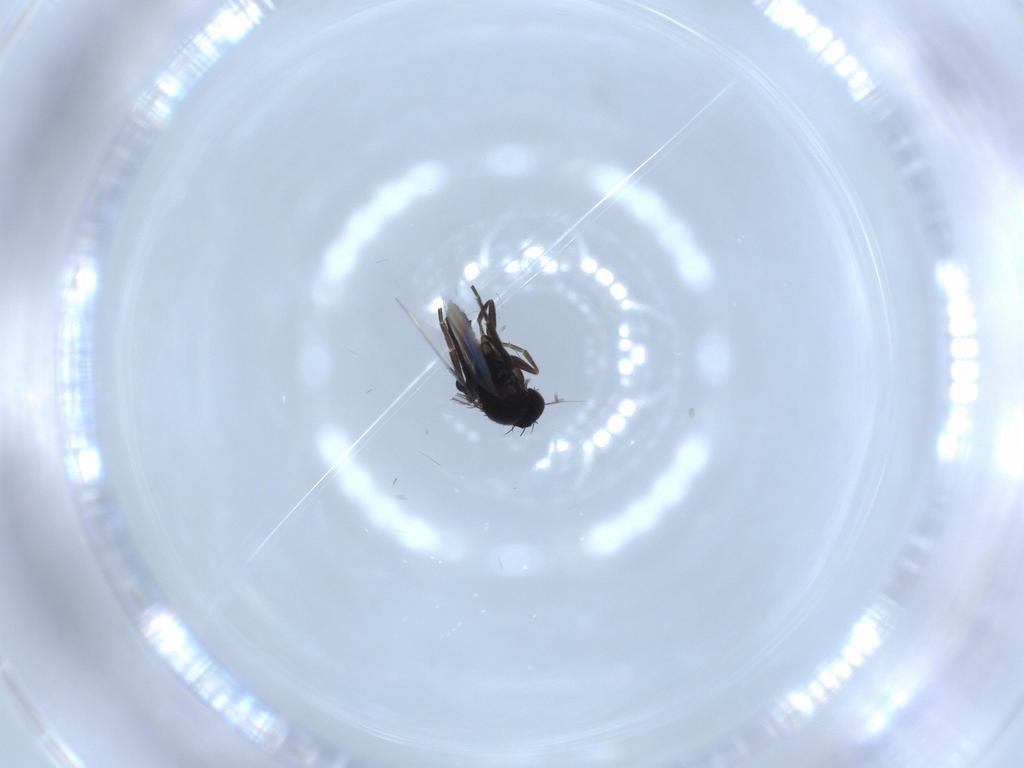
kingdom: Animalia
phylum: Arthropoda
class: Insecta
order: Diptera
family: Phoridae
